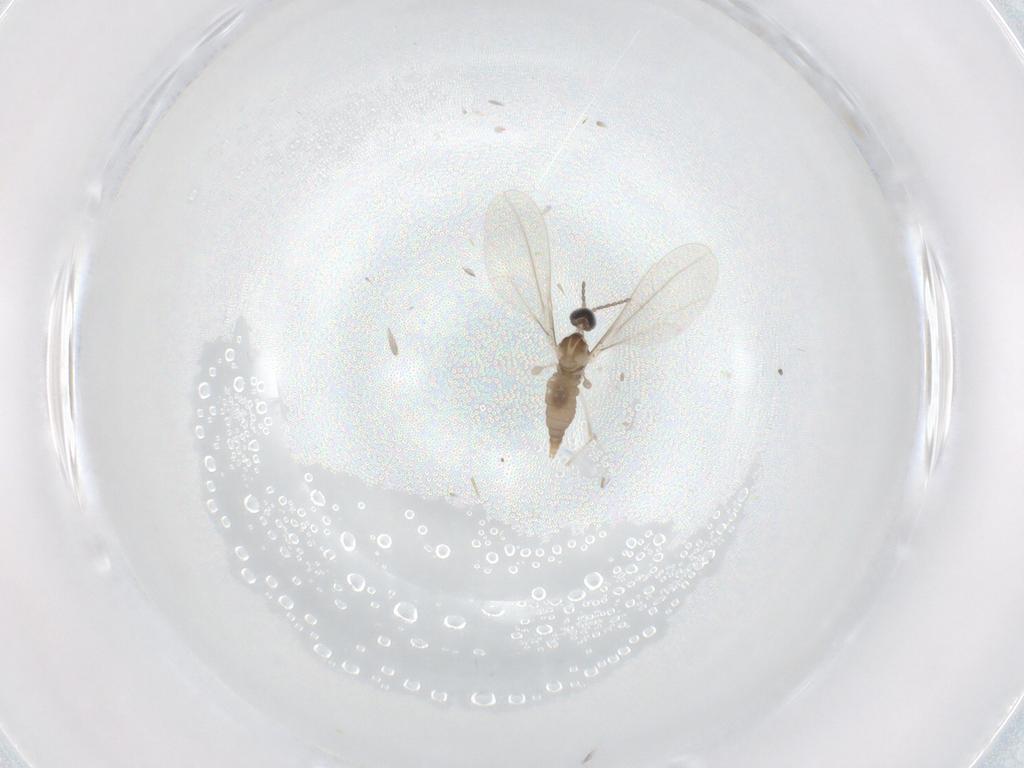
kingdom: Animalia
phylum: Arthropoda
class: Insecta
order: Diptera
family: Cecidomyiidae
